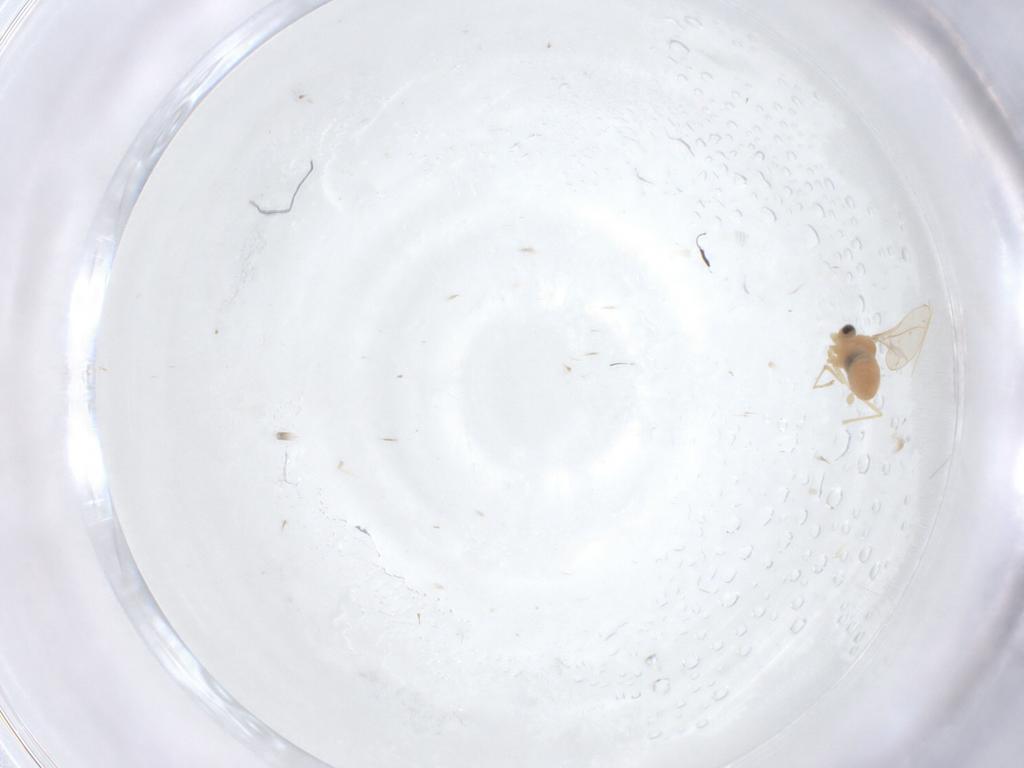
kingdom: Animalia
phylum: Arthropoda
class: Insecta
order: Diptera
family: Cecidomyiidae
